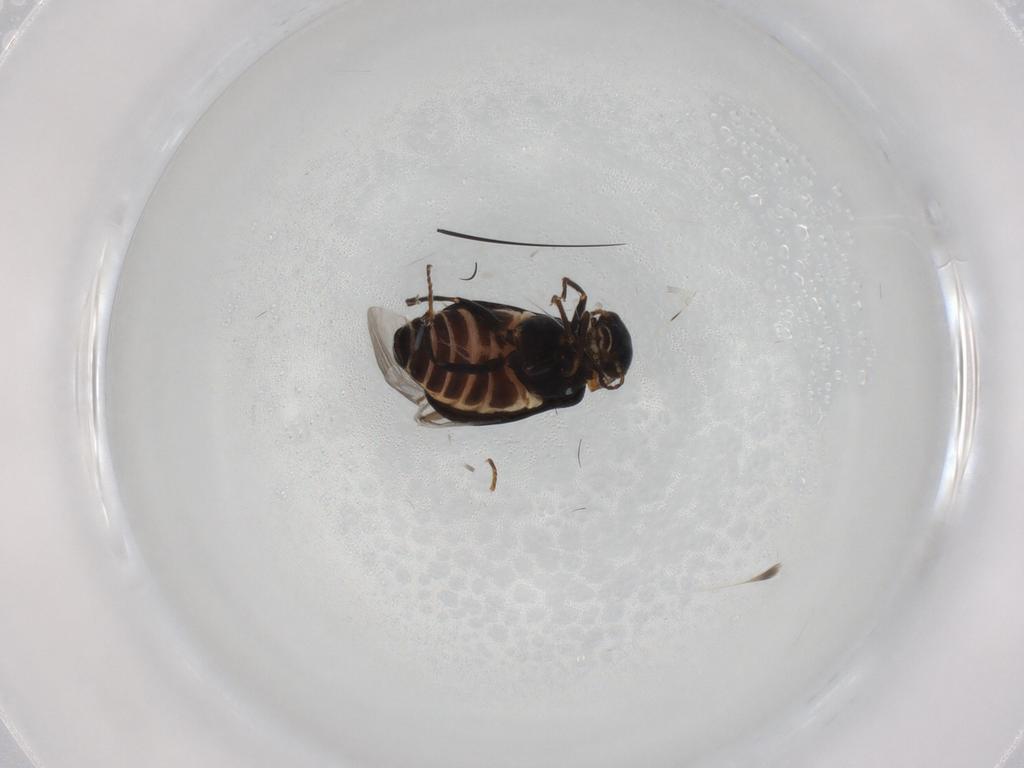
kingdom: Animalia
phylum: Arthropoda
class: Insecta
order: Coleoptera
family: Melyridae
